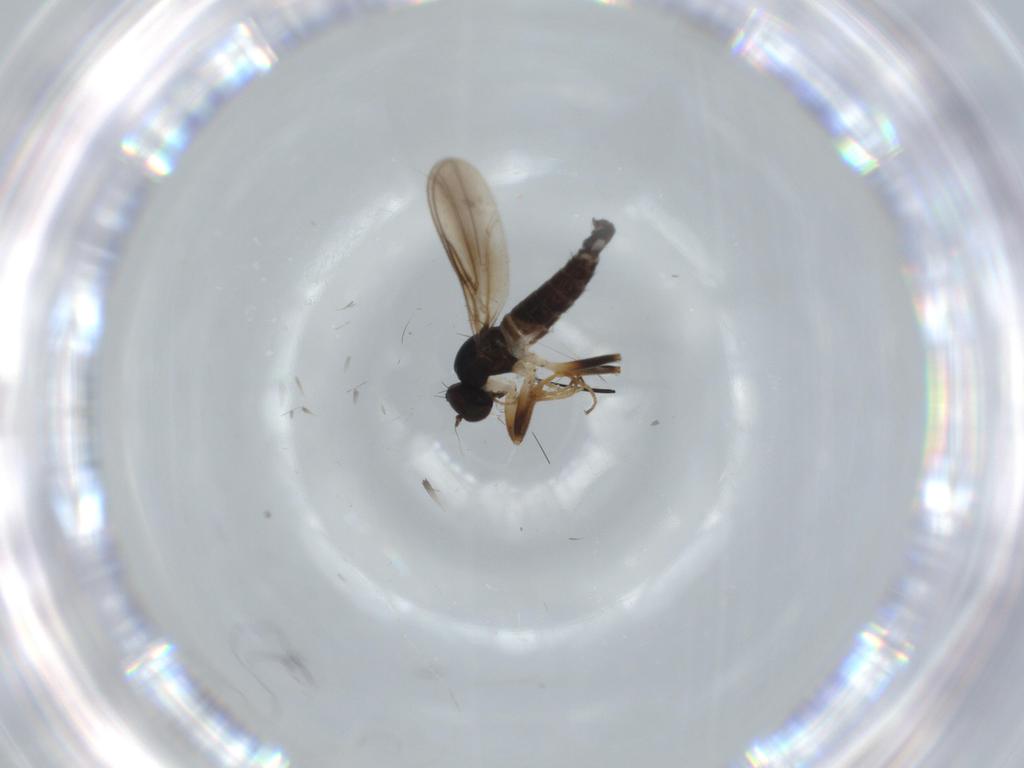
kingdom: Animalia
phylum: Arthropoda
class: Insecta
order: Diptera
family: Hybotidae
